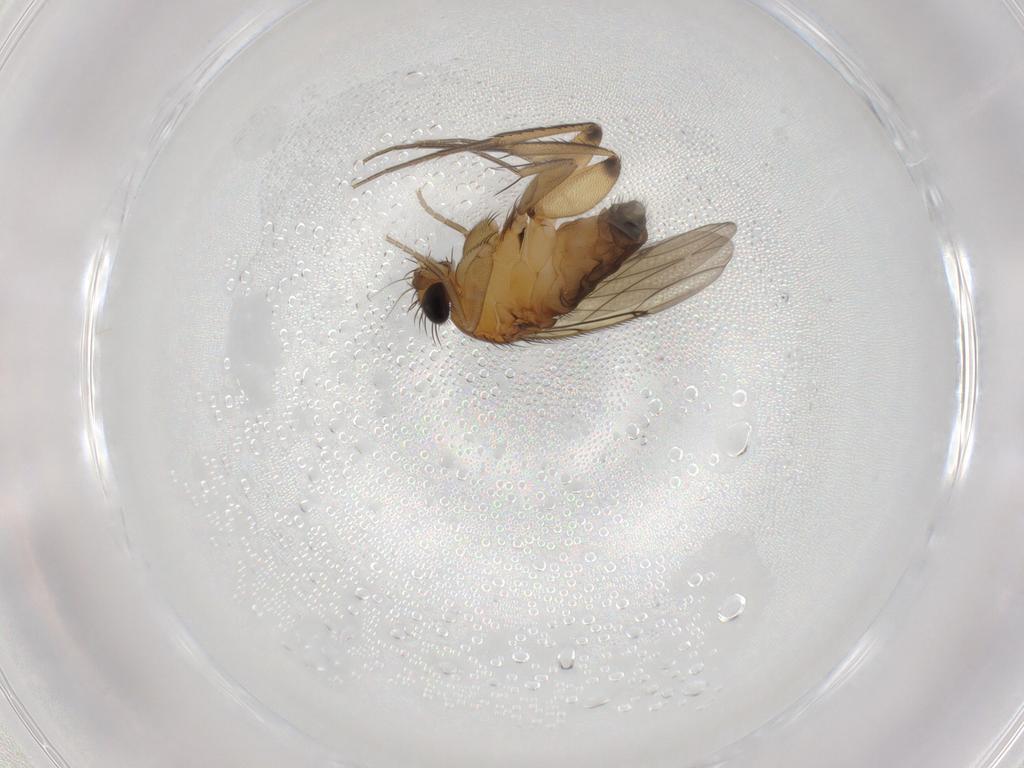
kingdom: Animalia
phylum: Arthropoda
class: Insecta
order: Diptera
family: Phoridae
